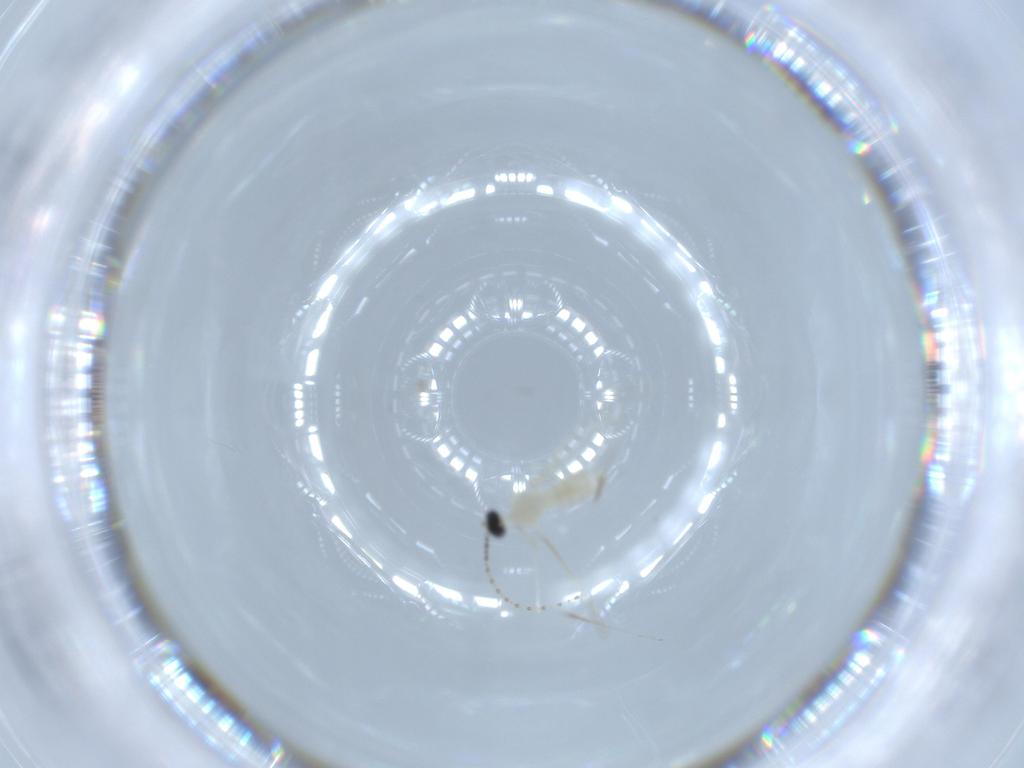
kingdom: Animalia
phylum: Arthropoda
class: Insecta
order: Diptera
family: Cecidomyiidae
